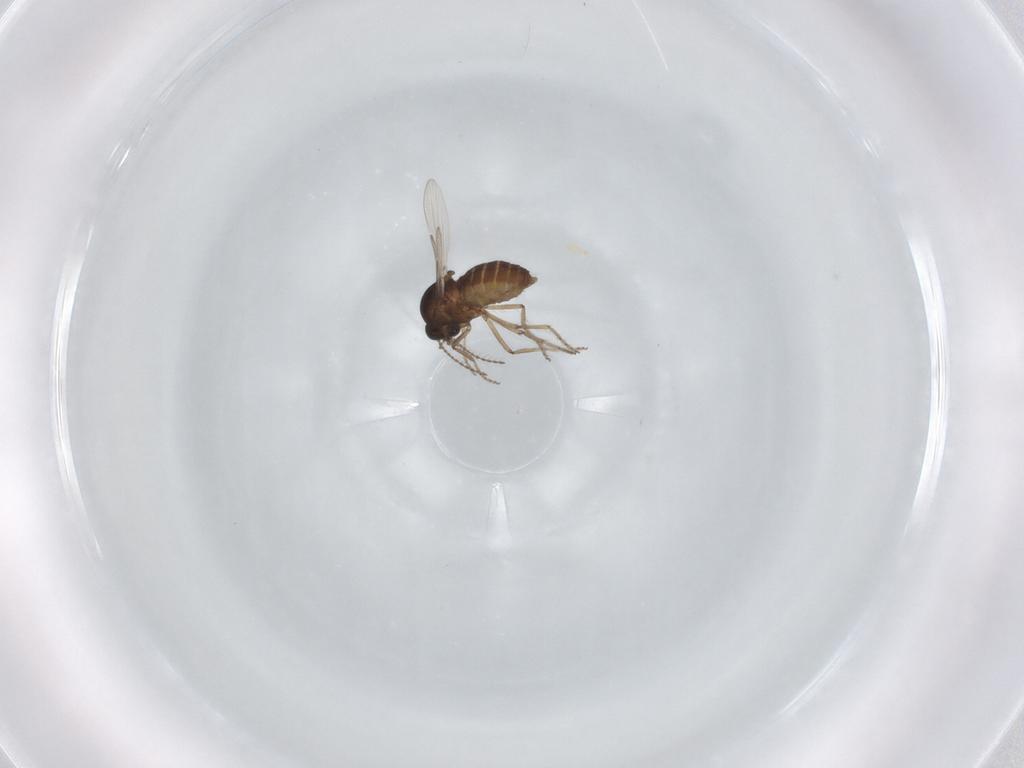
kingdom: Animalia
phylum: Arthropoda
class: Insecta
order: Diptera
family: Ceratopogonidae
